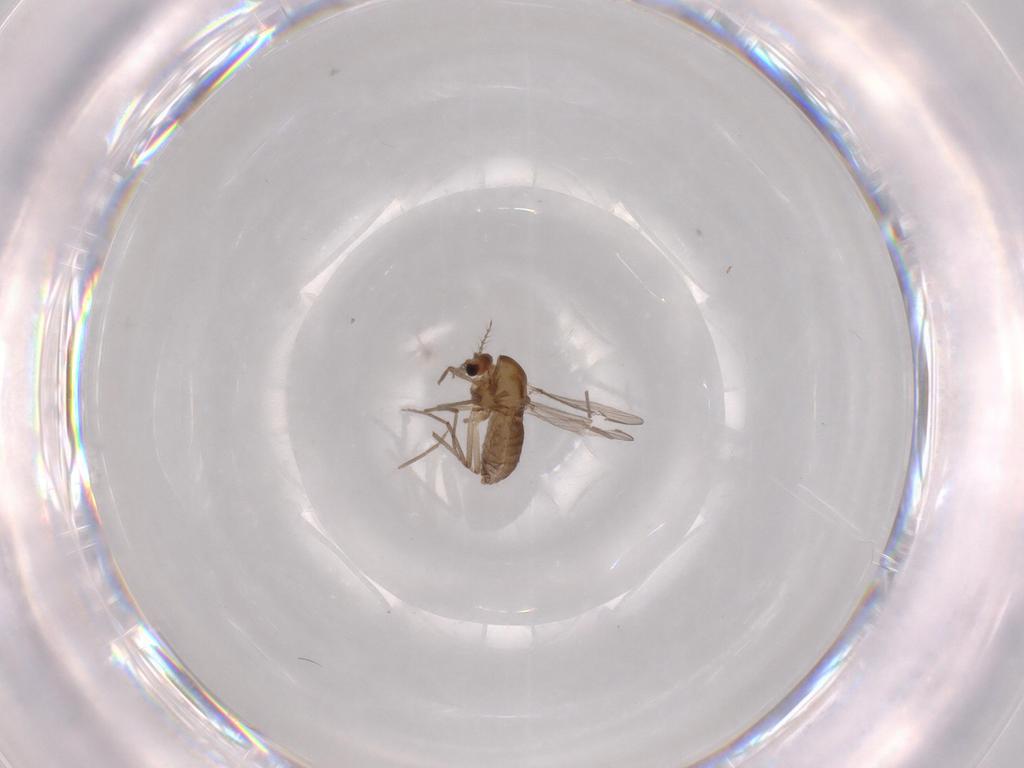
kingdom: Animalia
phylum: Arthropoda
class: Insecta
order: Diptera
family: Chironomidae
